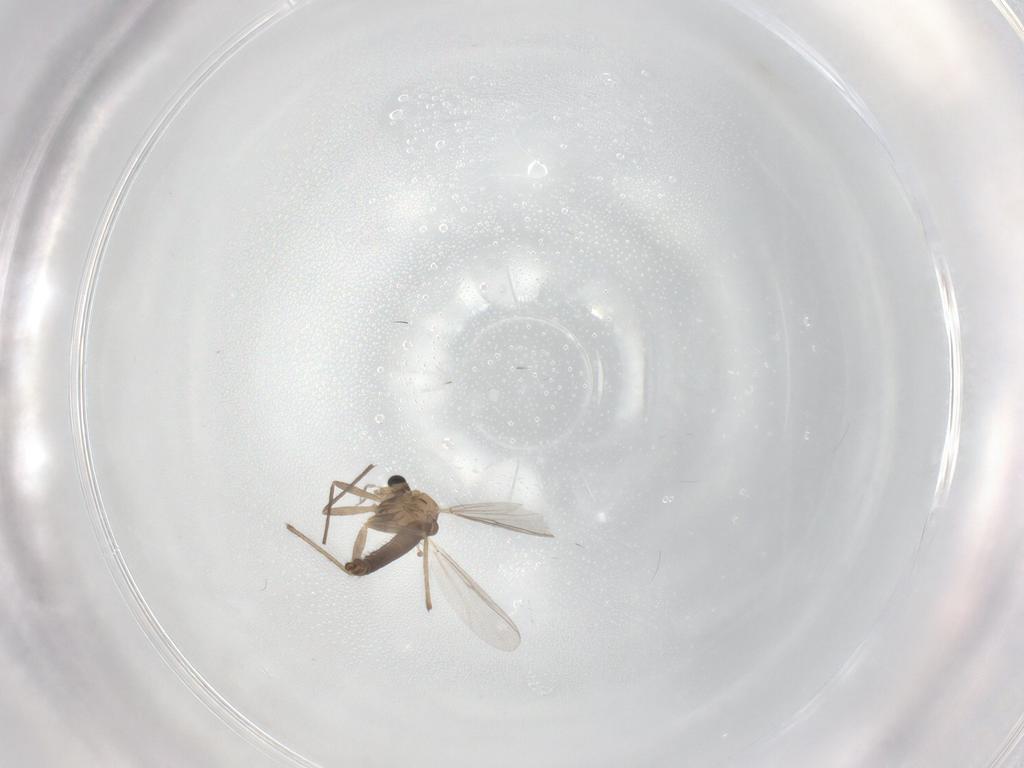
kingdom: Animalia
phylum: Arthropoda
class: Insecta
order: Diptera
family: Chironomidae
